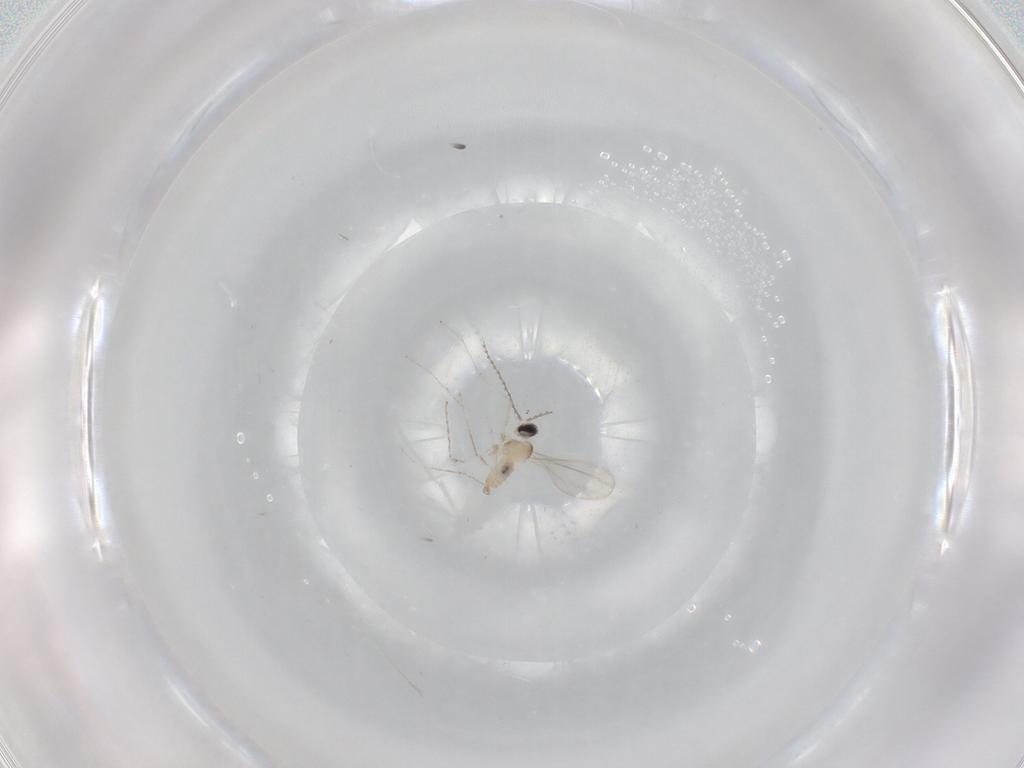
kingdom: Animalia
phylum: Arthropoda
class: Insecta
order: Diptera
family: Cecidomyiidae
